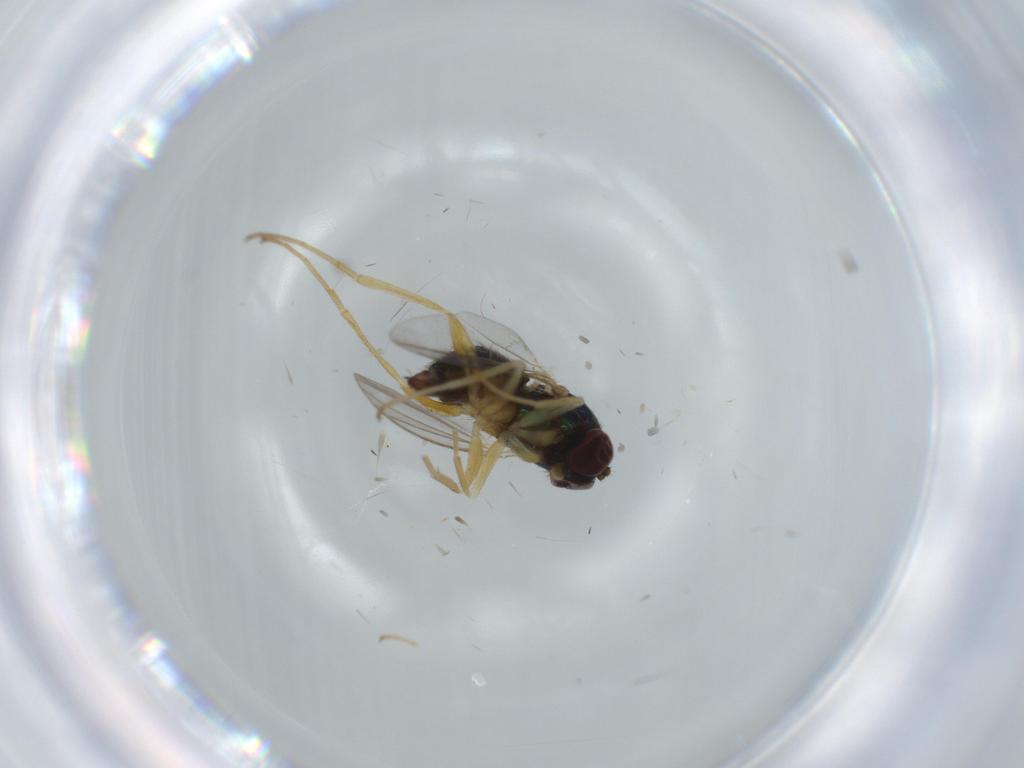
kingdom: Animalia
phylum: Arthropoda
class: Insecta
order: Diptera
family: Dolichopodidae
